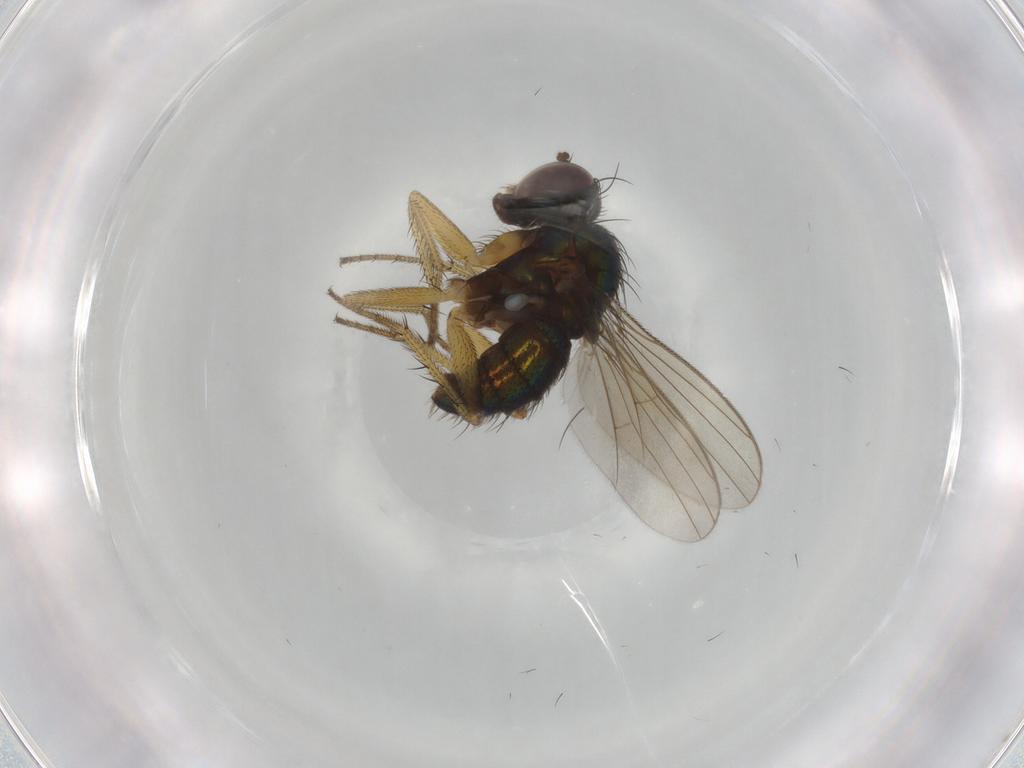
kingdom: Animalia
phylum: Arthropoda
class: Insecta
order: Diptera
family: Dolichopodidae
